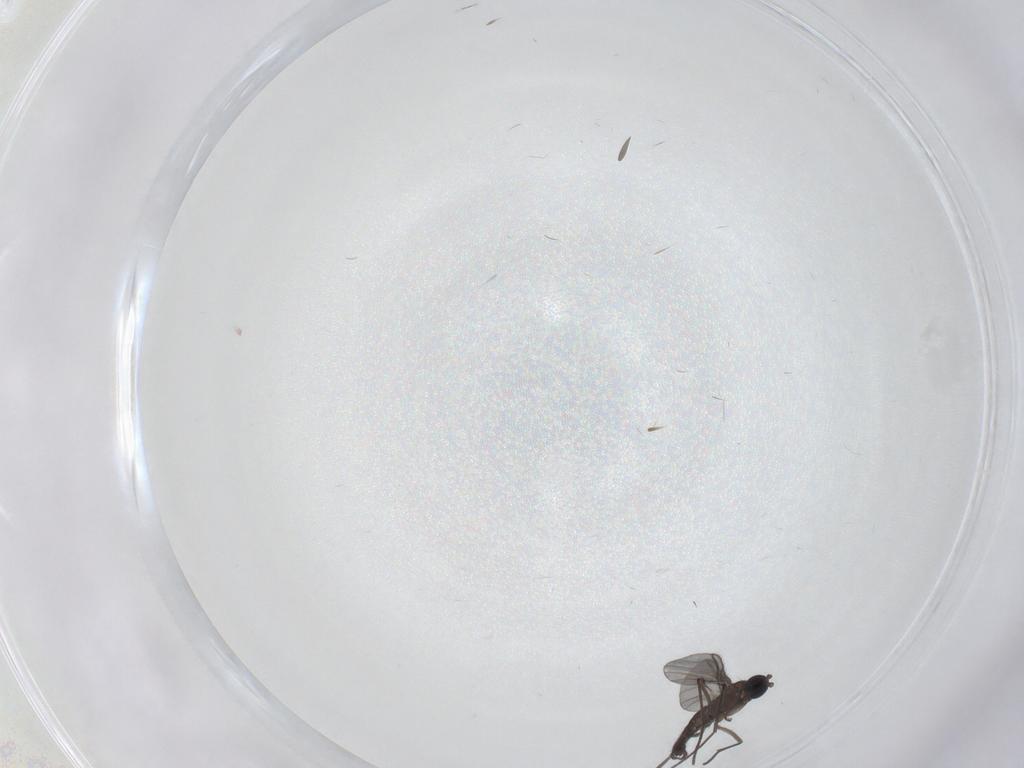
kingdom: Animalia
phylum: Arthropoda
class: Insecta
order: Diptera
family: Sciaridae
